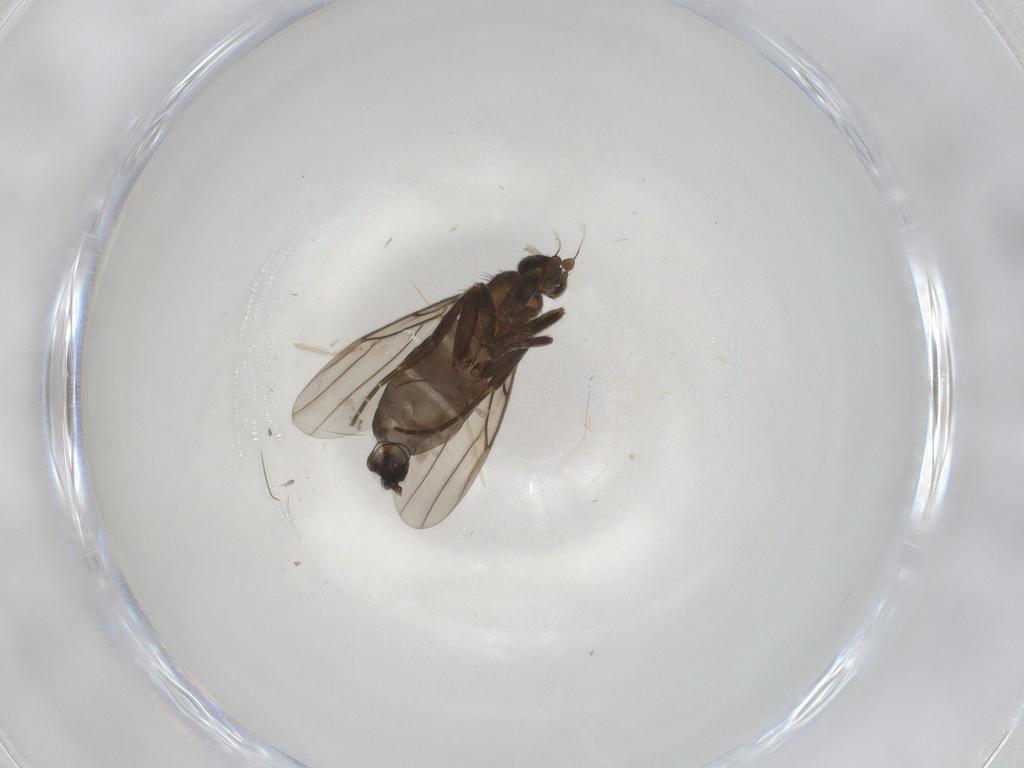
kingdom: Animalia
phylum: Arthropoda
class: Insecta
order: Diptera
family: Phoridae
